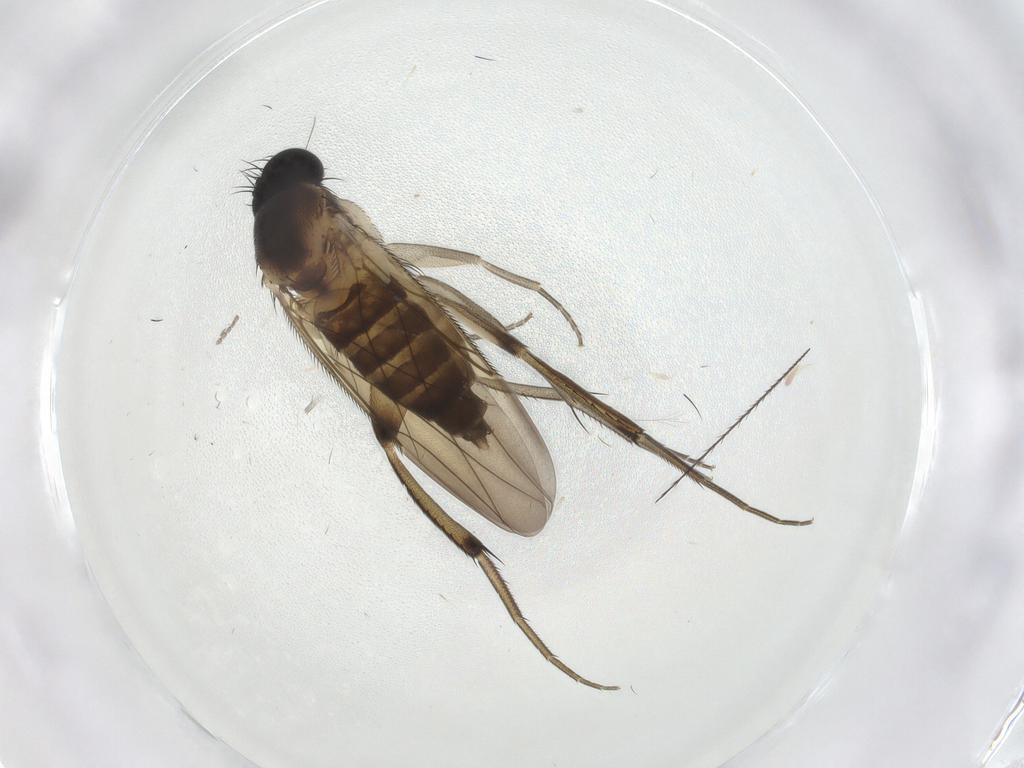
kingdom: Animalia
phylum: Arthropoda
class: Insecta
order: Diptera
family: Phoridae
